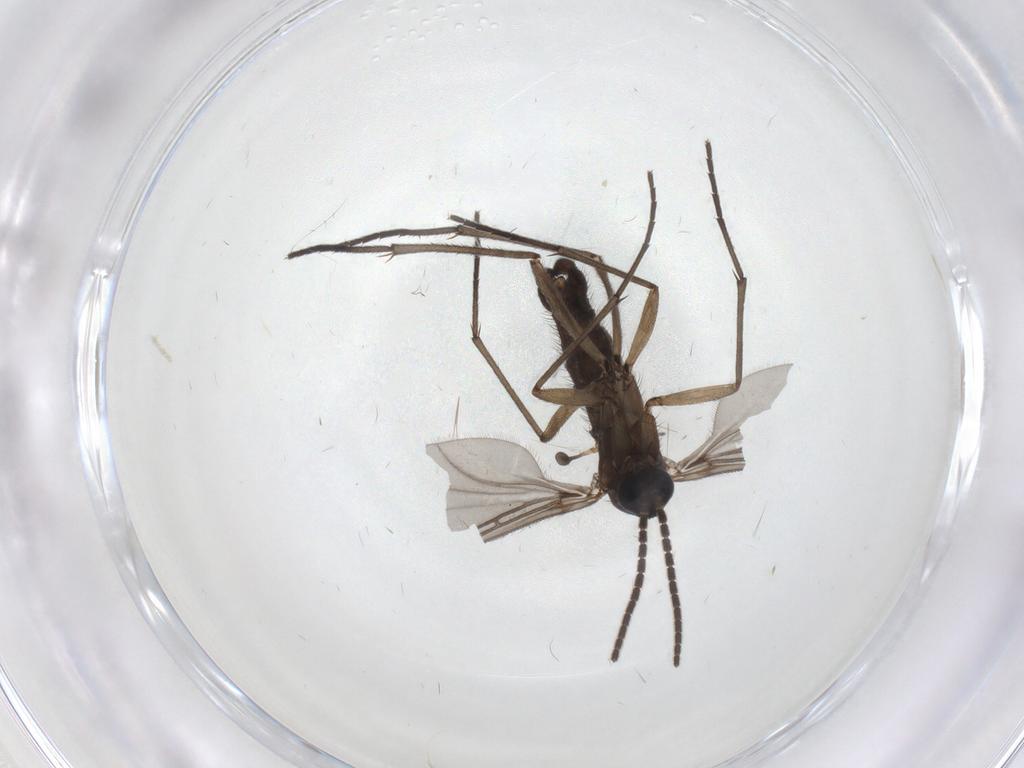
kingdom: Animalia
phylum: Arthropoda
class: Insecta
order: Diptera
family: Sciaridae
